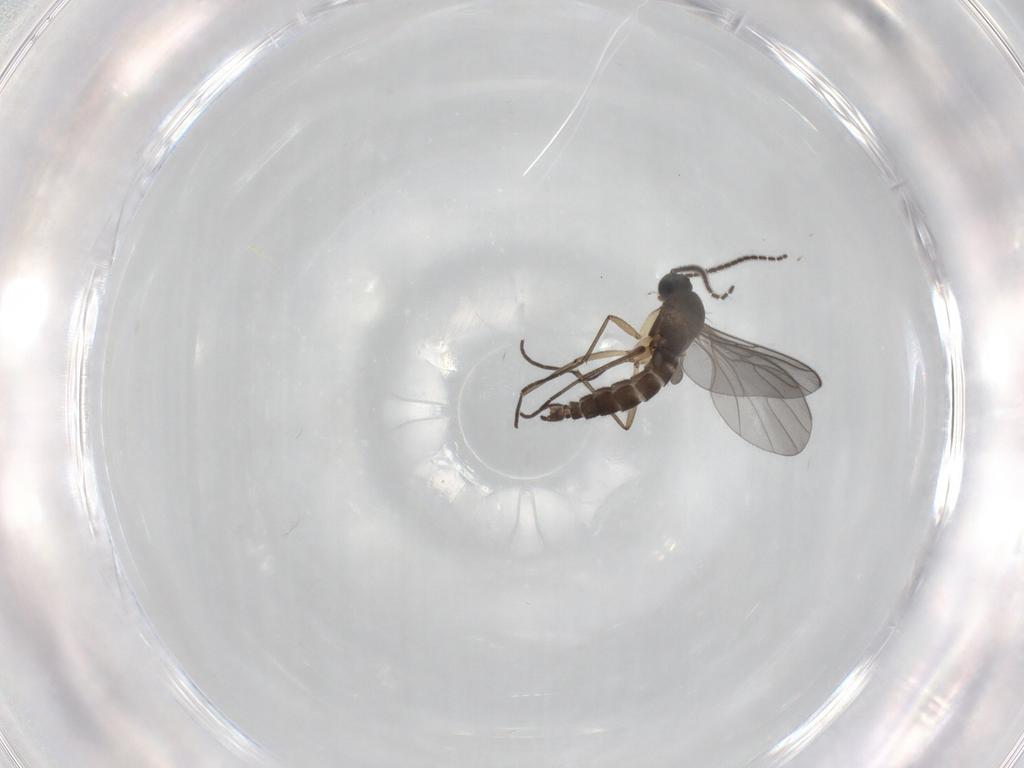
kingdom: Animalia
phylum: Arthropoda
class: Insecta
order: Diptera
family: Sciaridae
